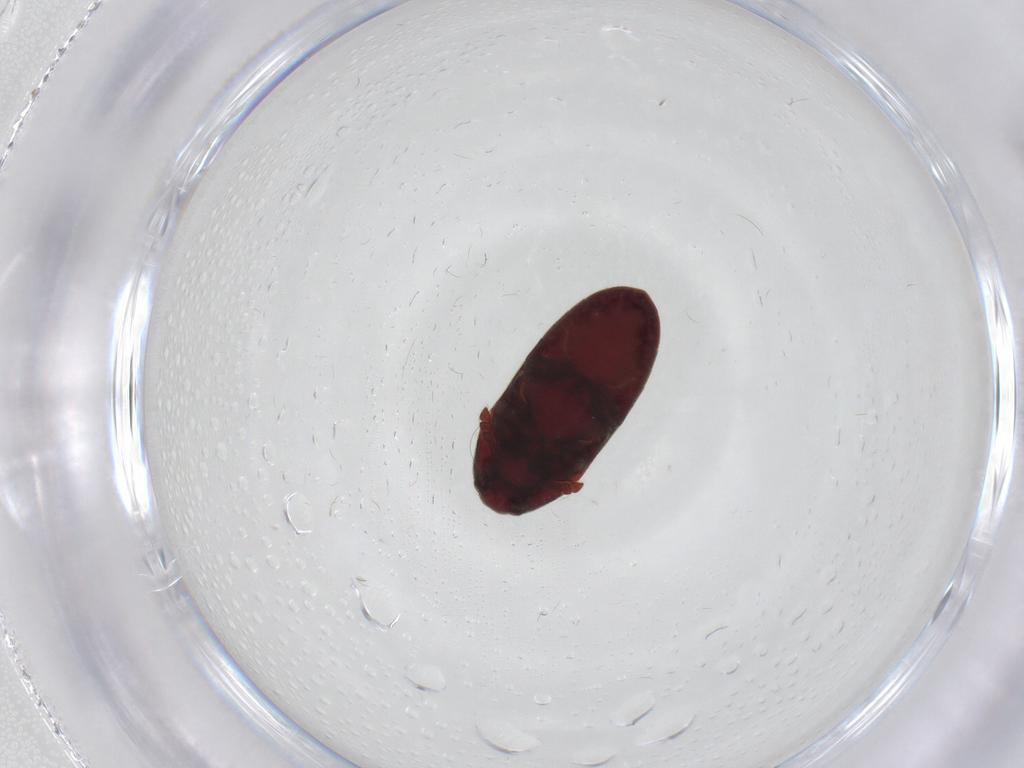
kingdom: Animalia
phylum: Arthropoda
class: Insecta
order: Coleoptera
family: Throscidae
